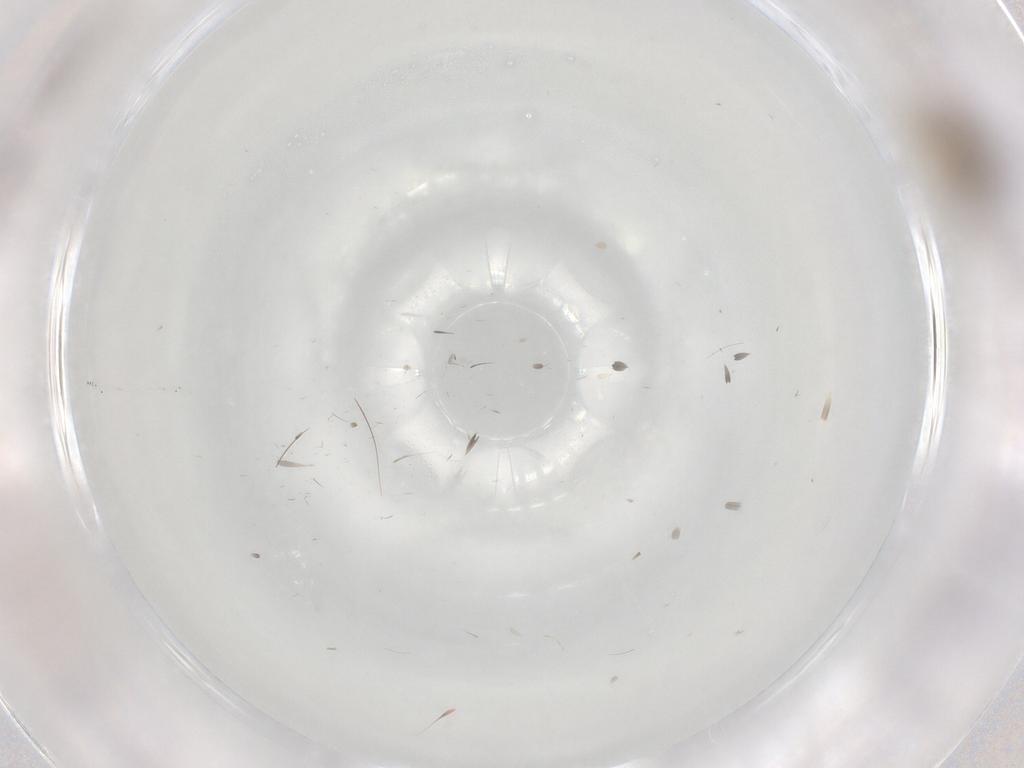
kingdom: Animalia
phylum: Arthropoda
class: Insecta
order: Diptera
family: Cecidomyiidae
